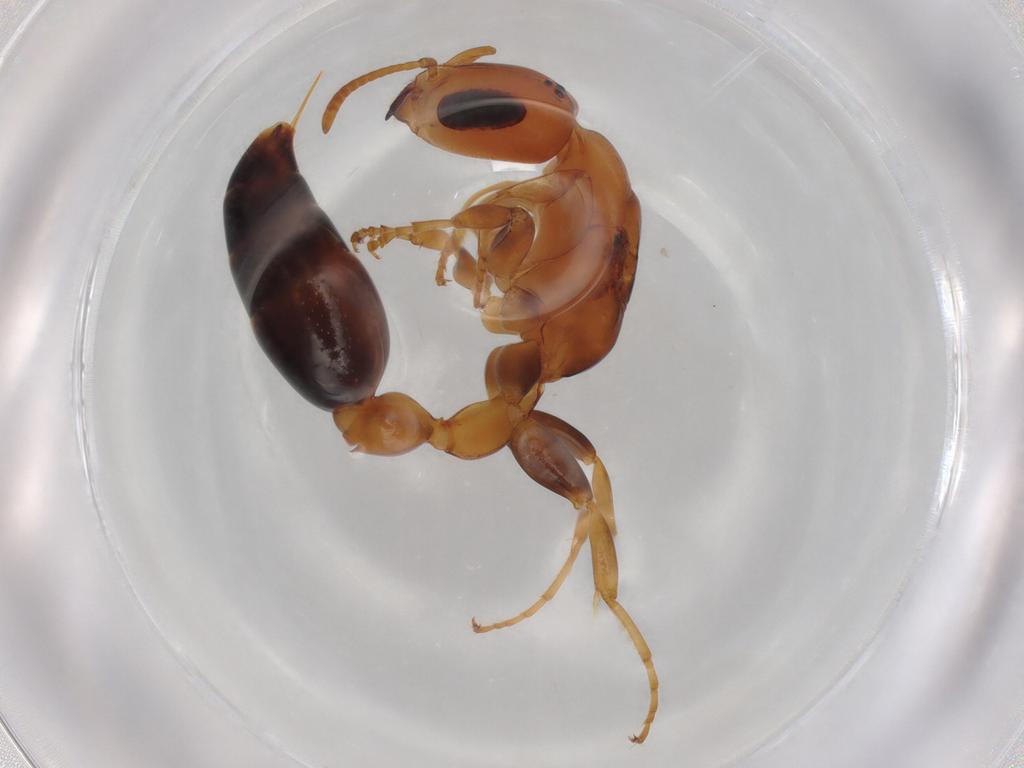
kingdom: Animalia
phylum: Arthropoda
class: Insecta
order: Hymenoptera
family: Formicidae
